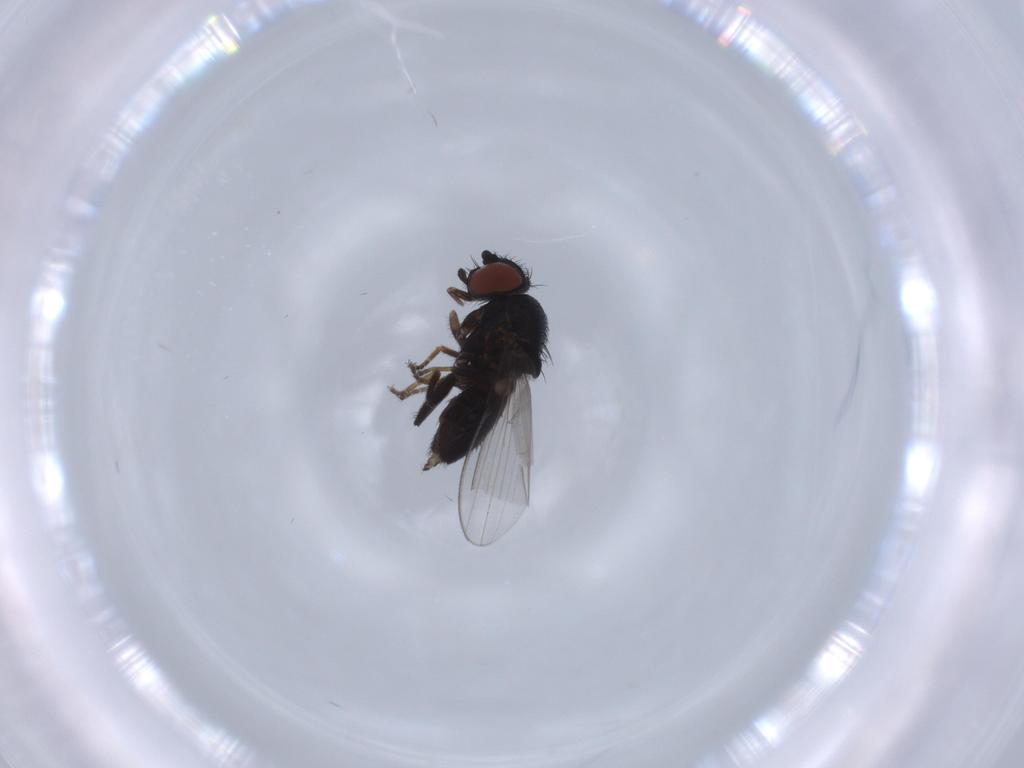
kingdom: Animalia
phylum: Arthropoda
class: Insecta
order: Diptera
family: Milichiidae
